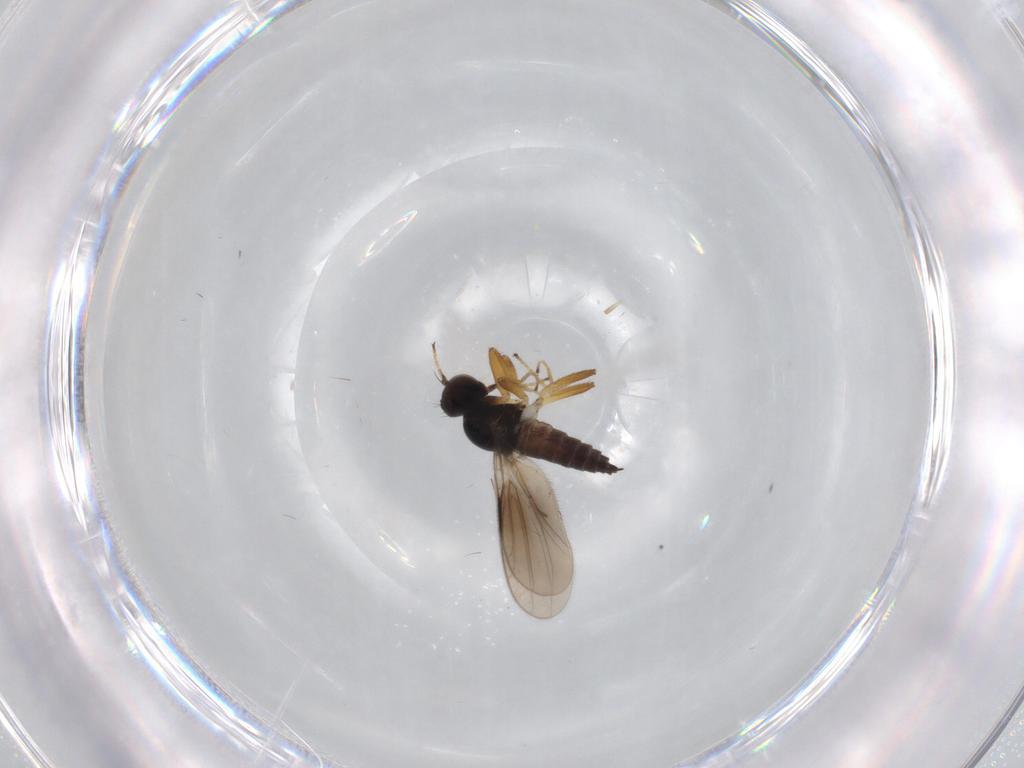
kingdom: Animalia
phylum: Arthropoda
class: Insecta
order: Diptera
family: Hybotidae
